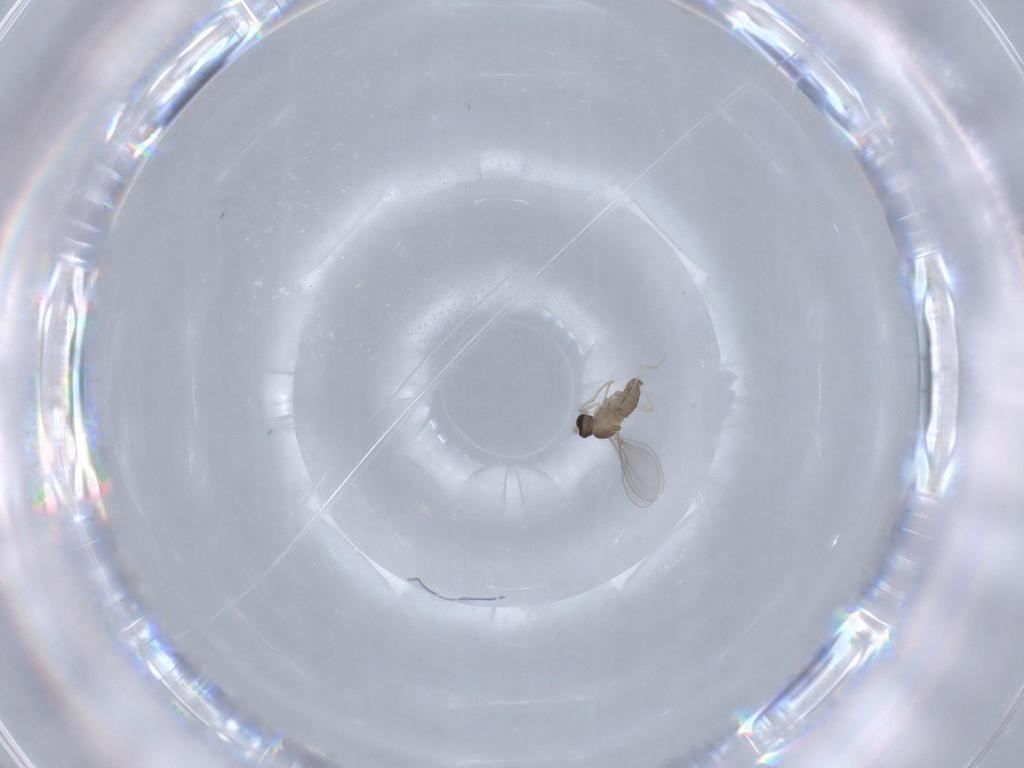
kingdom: Animalia
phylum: Arthropoda
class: Insecta
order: Diptera
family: Cecidomyiidae
